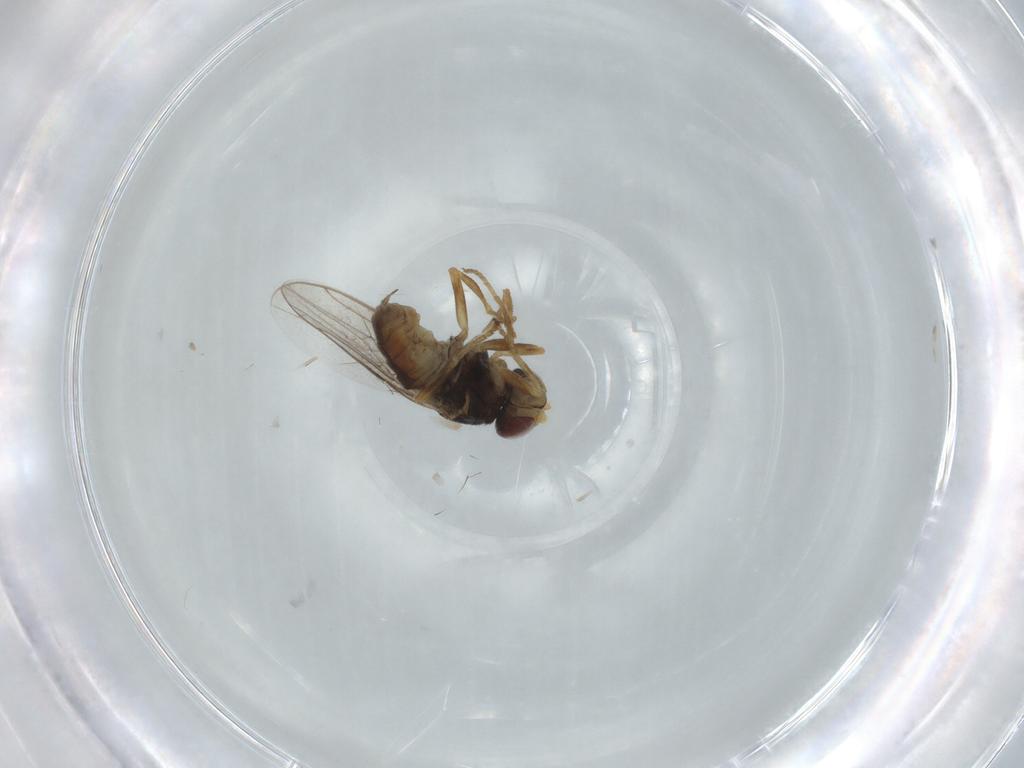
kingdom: Animalia
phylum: Arthropoda
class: Insecta
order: Diptera
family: Chloropidae
